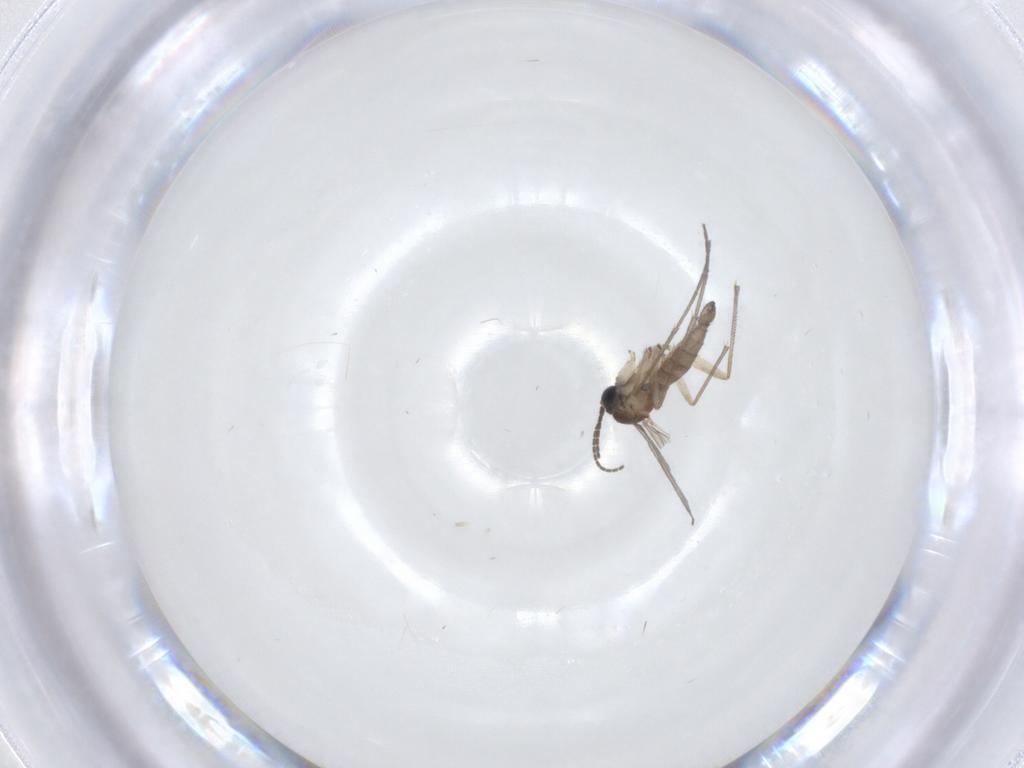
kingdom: Animalia
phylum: Arthropoda
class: Insecta
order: Diptera
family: Sciaridae
